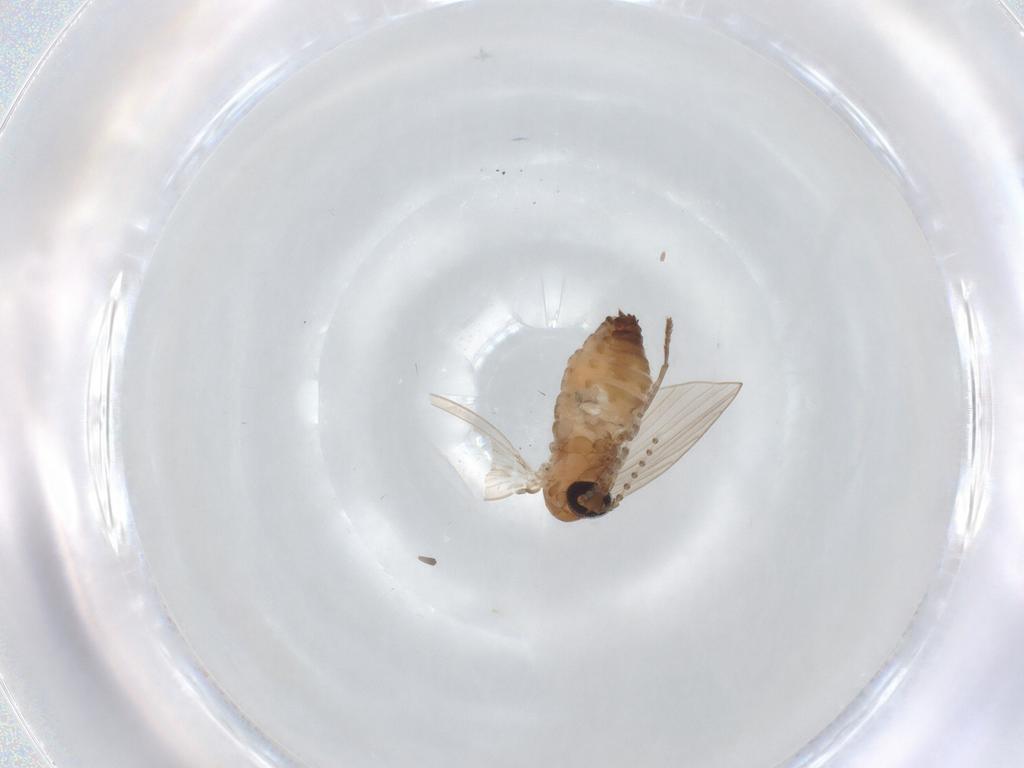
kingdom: Animalia
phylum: Arthropoda
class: Insecta
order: Diptera
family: Psychodidae
